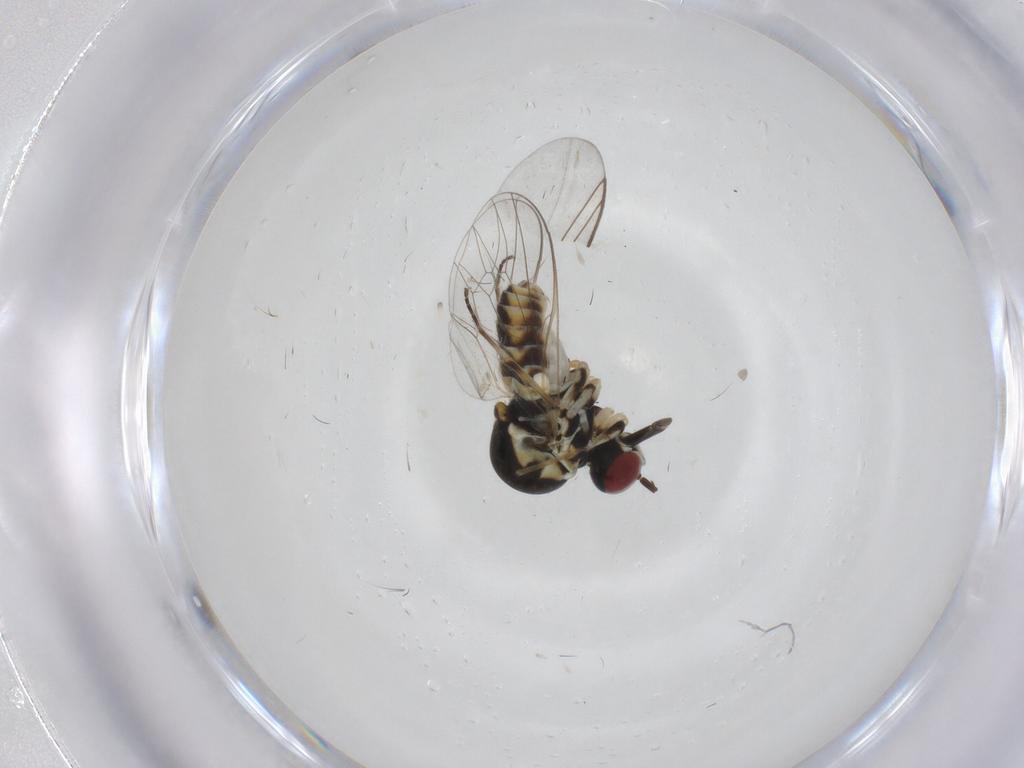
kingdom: Animalia
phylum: Arthropoda
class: Insecta
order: Diptera
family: Bombyliidae
